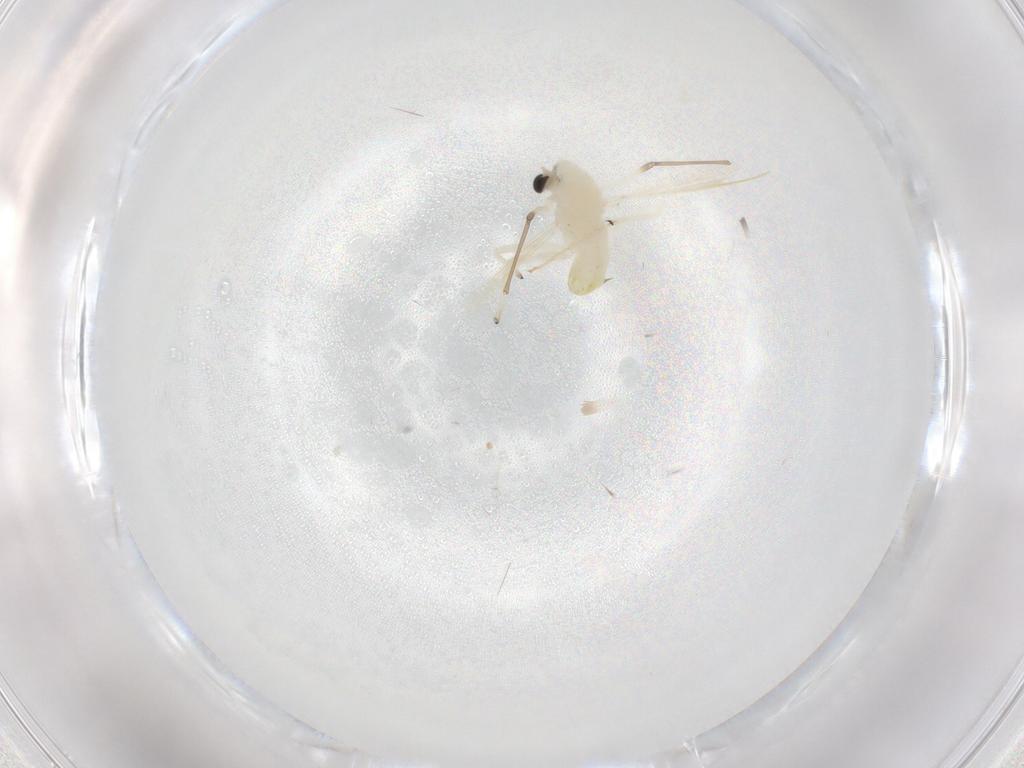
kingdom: Animalia
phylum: Arthropoda
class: Insecta
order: Diptera
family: Chironomidae
